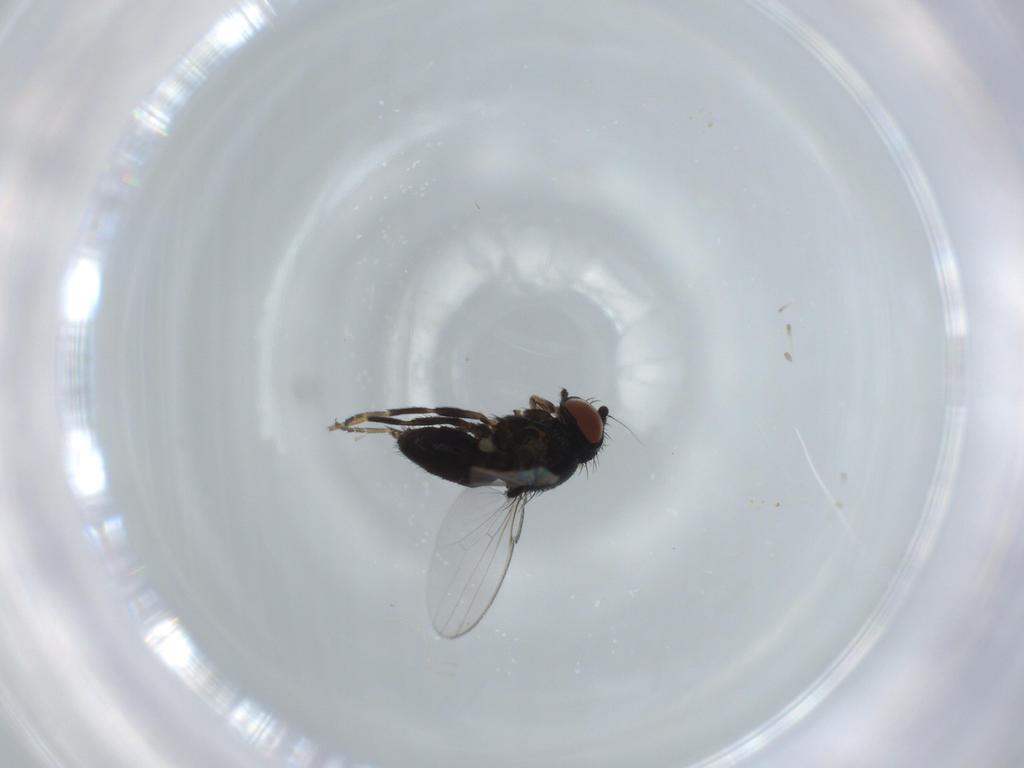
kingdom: Animalia
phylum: Arthropoda
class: Insecta
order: Diptera
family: Milichiidae
